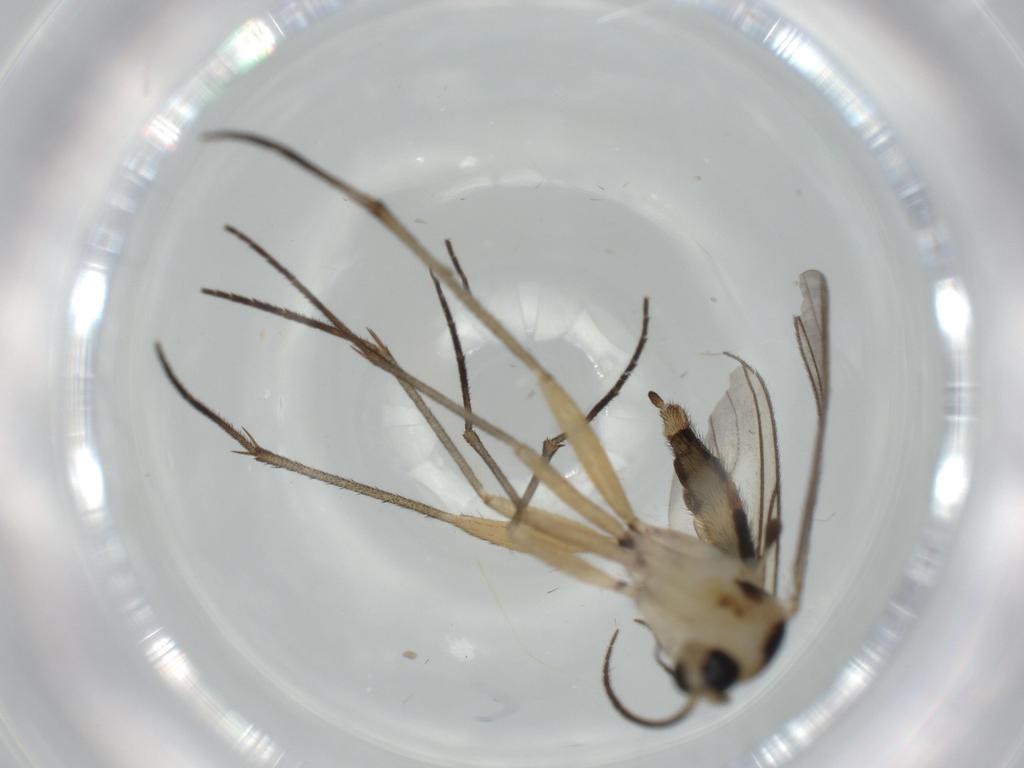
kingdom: Animalia
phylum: Arthropoda
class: Insecta
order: Diptera
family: Sciaridae
